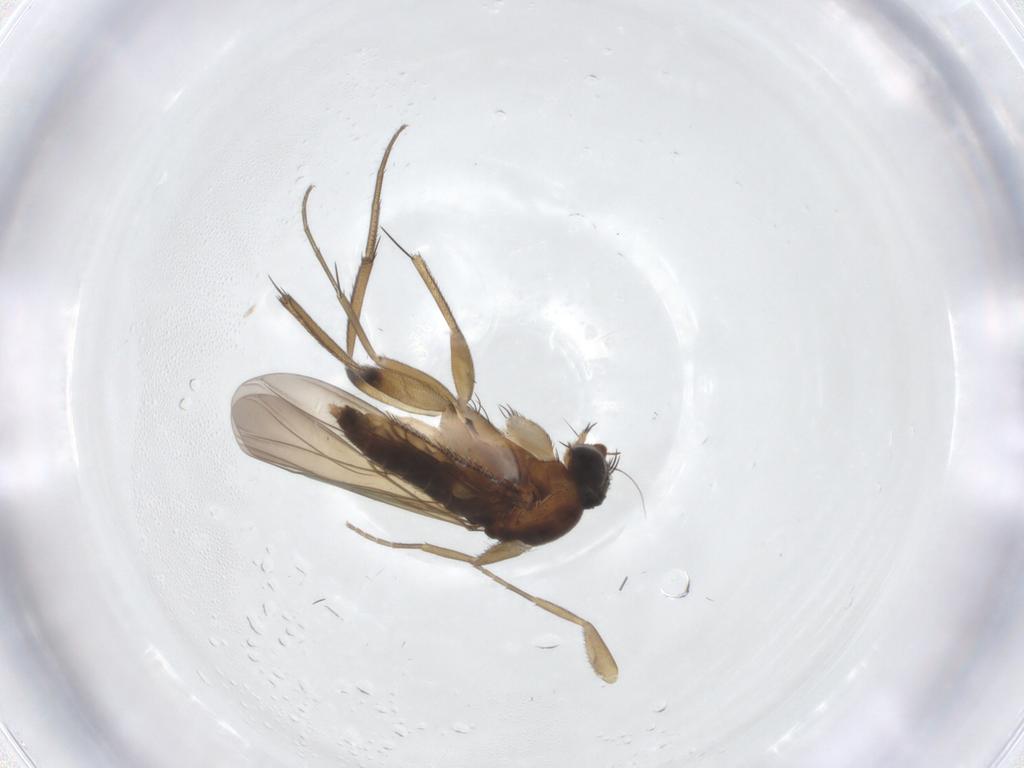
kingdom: Animalia
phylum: Arthropoda
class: Insecta
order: Diptera
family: Phoridae
